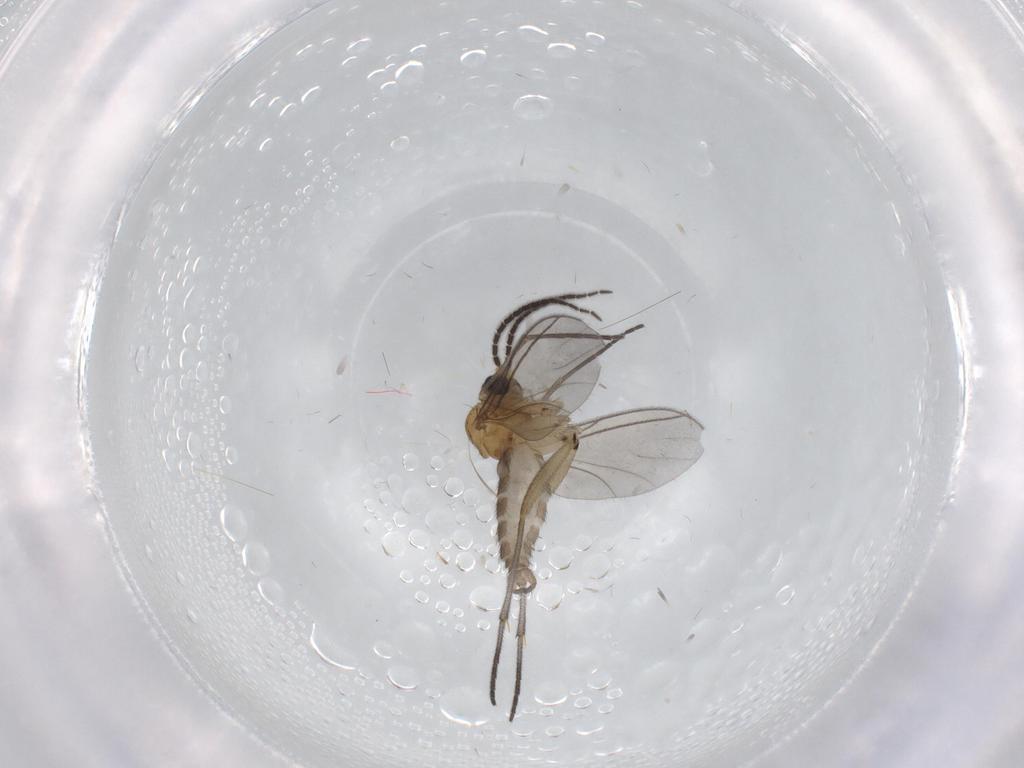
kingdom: Animalia
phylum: Arthropoda
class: Insecta
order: Diptera
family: Sciaridae
